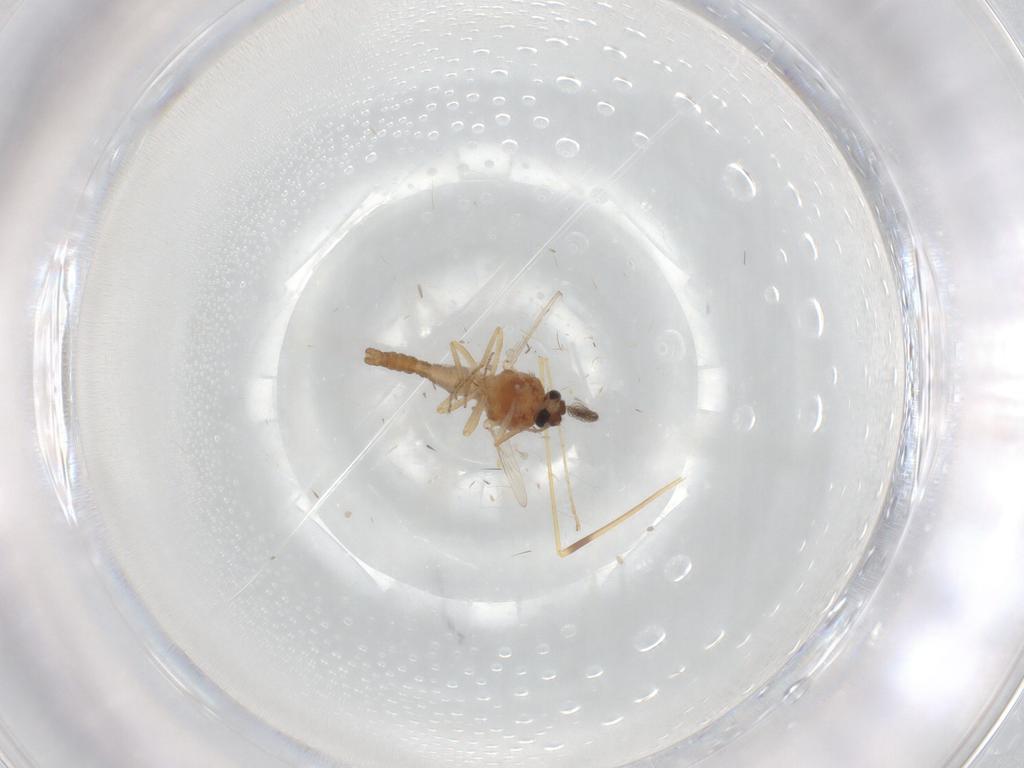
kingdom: Animalia
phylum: Arthropoda
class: Insecta
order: Diptera
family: Ceratopogonidae
